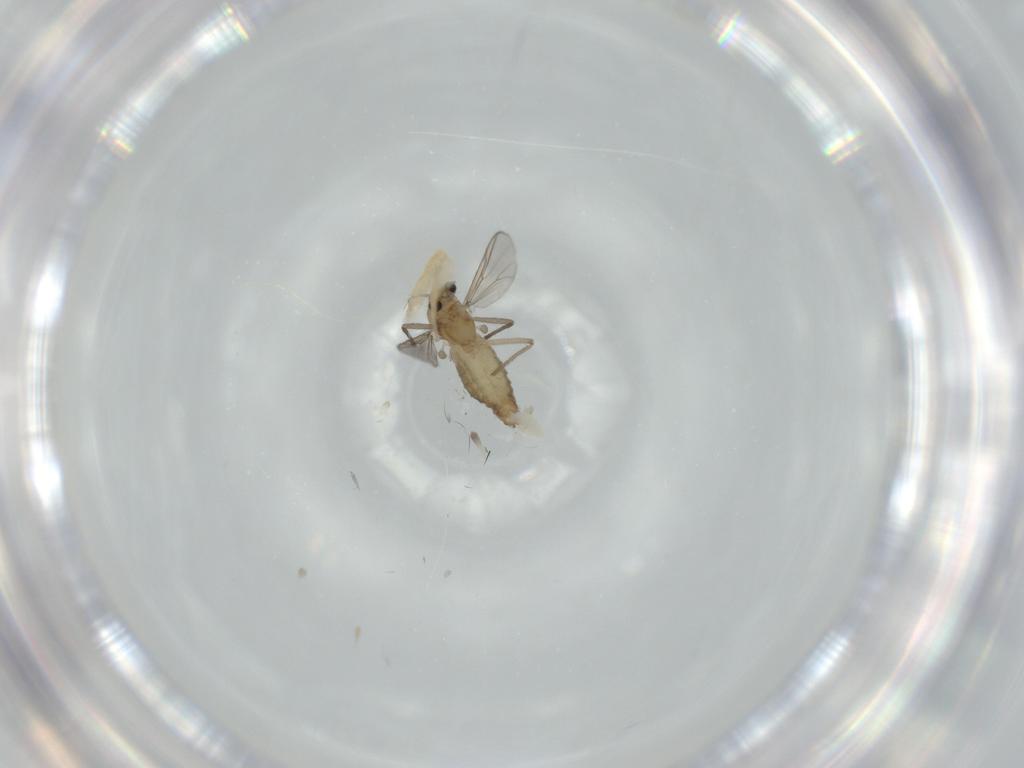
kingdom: Animalia
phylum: Arthropoda
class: Insecta
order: Diptera
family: Chironomidae
